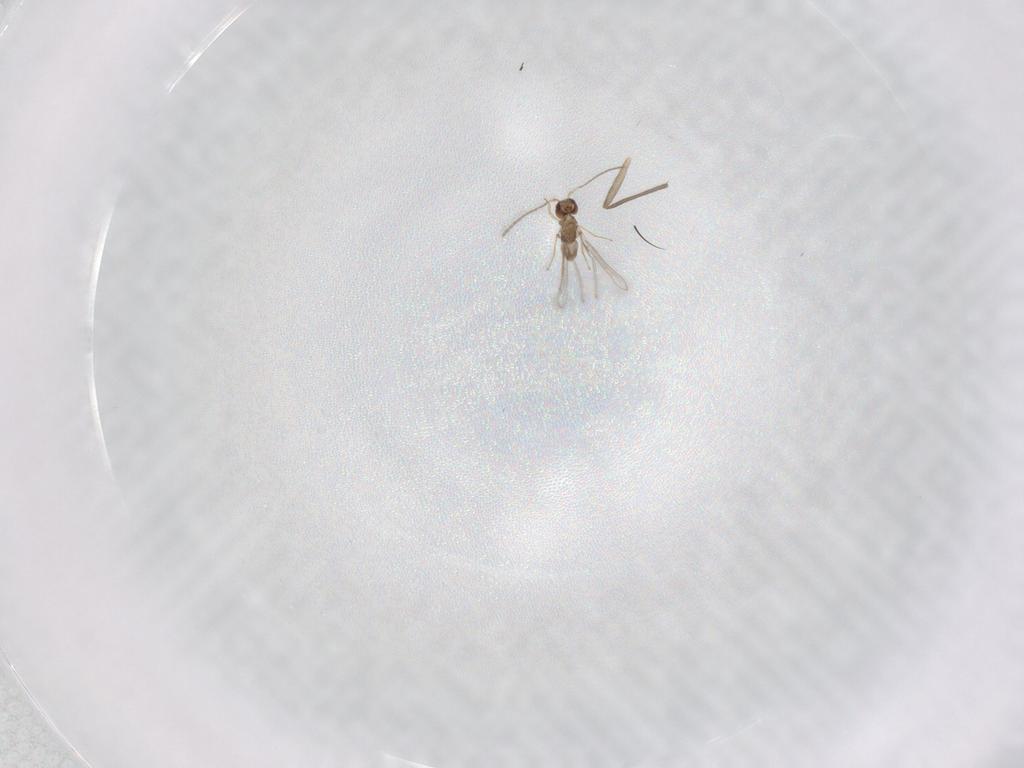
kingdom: Animalia
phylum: Arthropoda
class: Insecta
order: Diptera
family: Chironomidae
